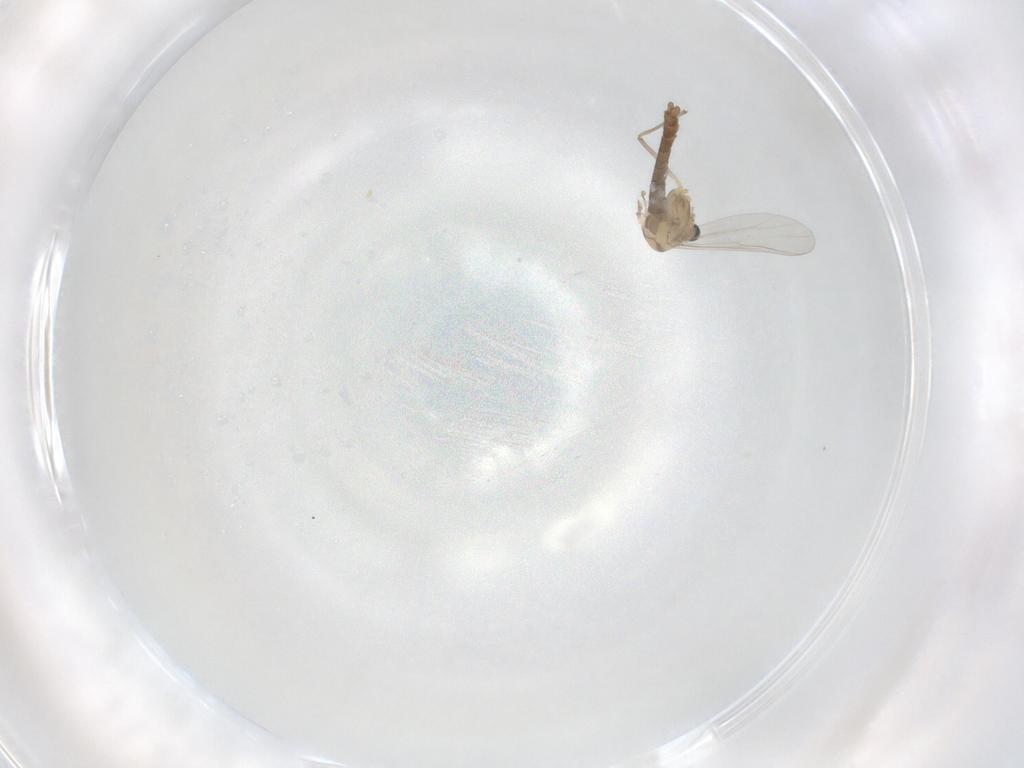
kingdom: Animalia
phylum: Arthropoda
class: Insecta
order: Diptera
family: Chironomidae
